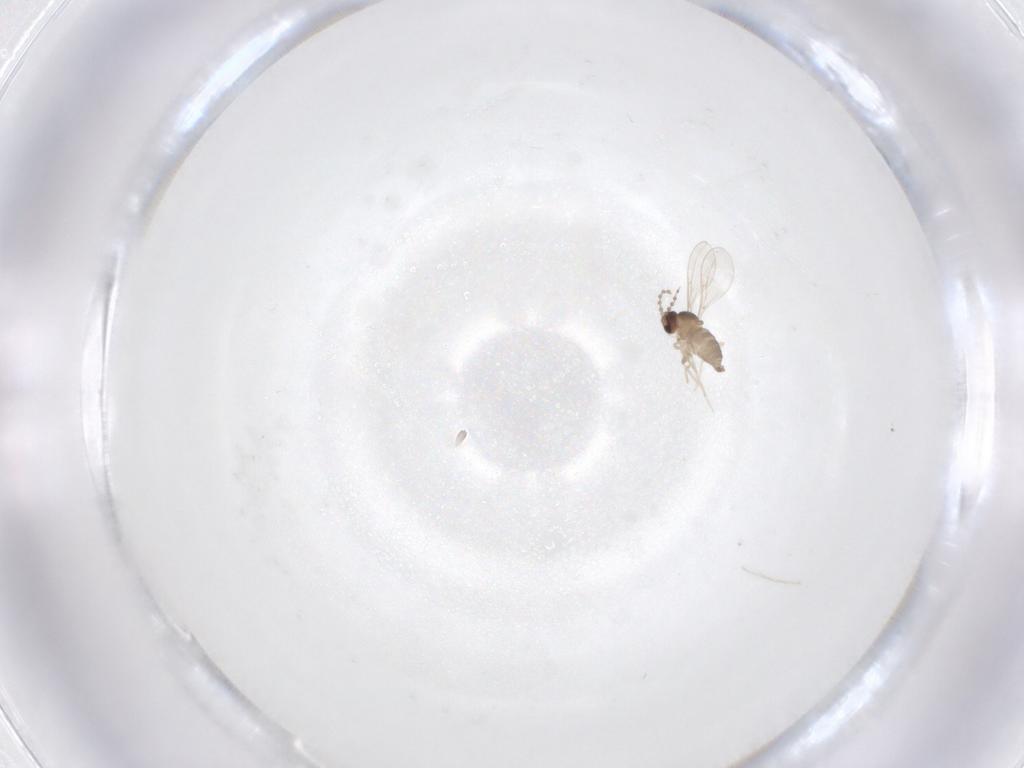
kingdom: Animalia
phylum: Arthropoda
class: Insecta
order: Diptera
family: Cecidomyiidae
